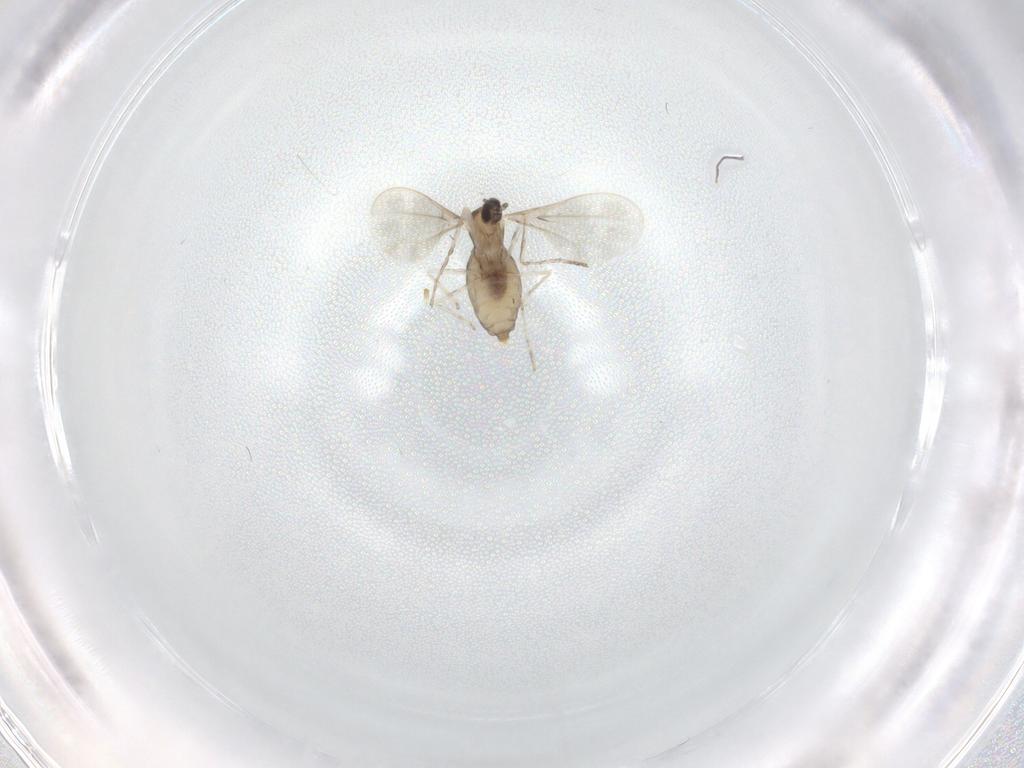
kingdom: Animalia
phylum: Arthropoda
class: Insecta
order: Diptera
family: Cecidomyiidae
